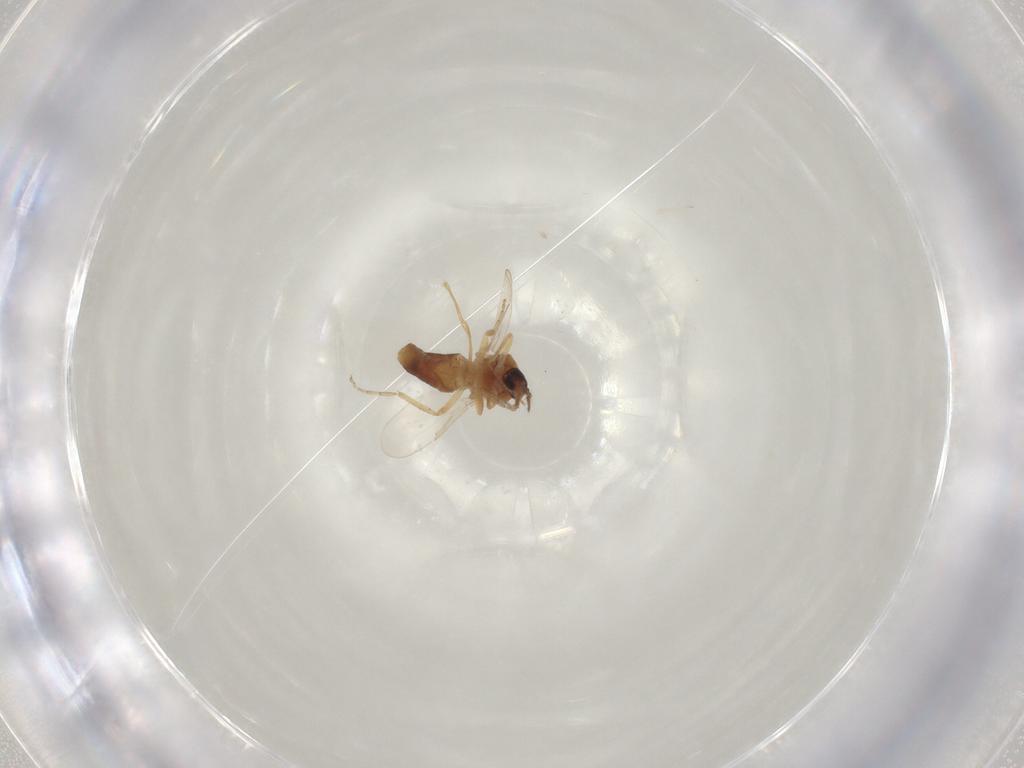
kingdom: Animalia
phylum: Arthropoda
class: Insecta
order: Diptera
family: Ceratopogonidae
